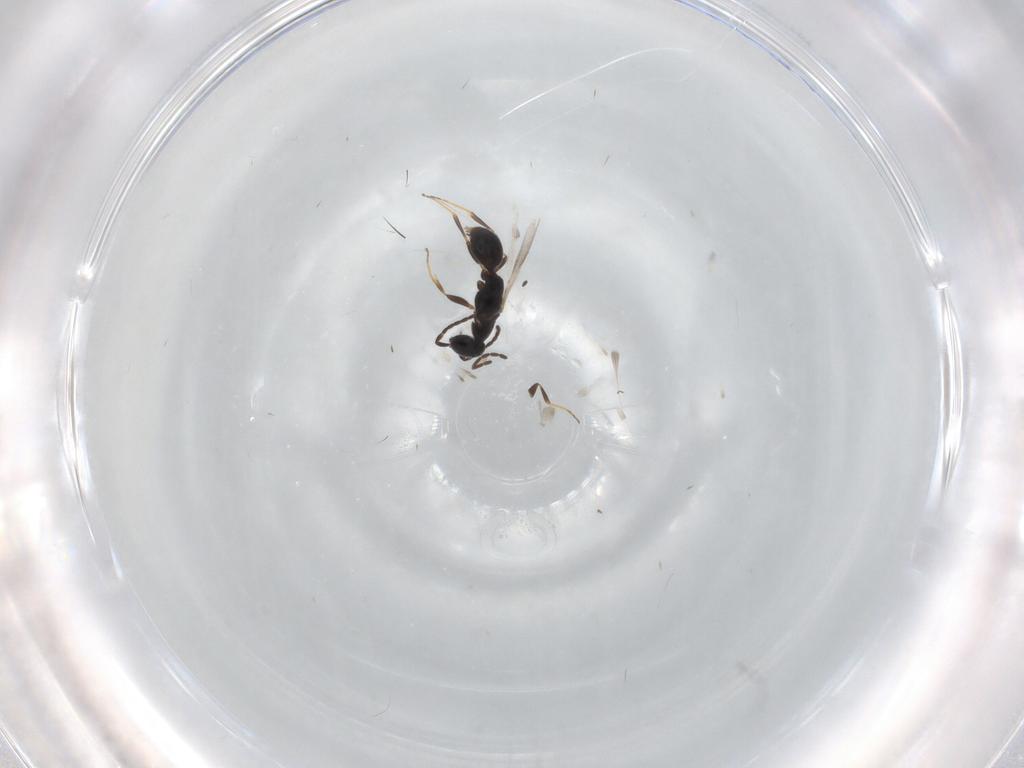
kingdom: Animalia
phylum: Arthropoda
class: Insecta
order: Hymenoptera
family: Bethylidae
